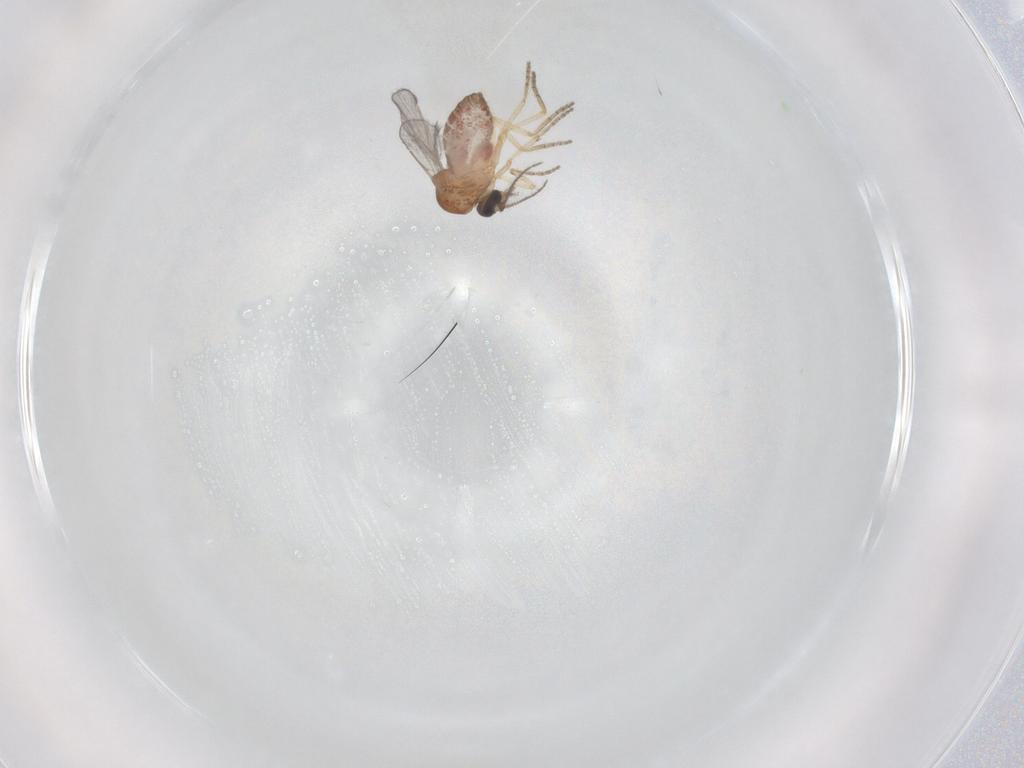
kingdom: Animalia
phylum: Arthropoda
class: Insecta
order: Diptera
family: Ceratopogonidae
